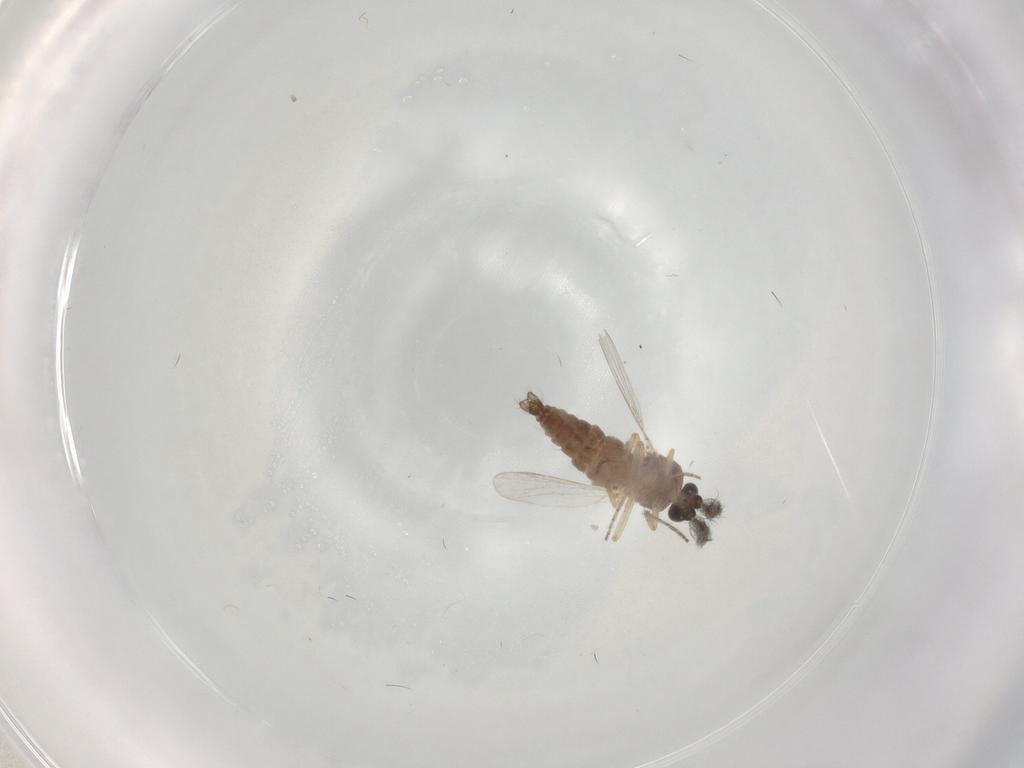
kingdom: Animalia
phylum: Arthropoda
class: Insecta
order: Diptera
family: Ceratopogonidae
